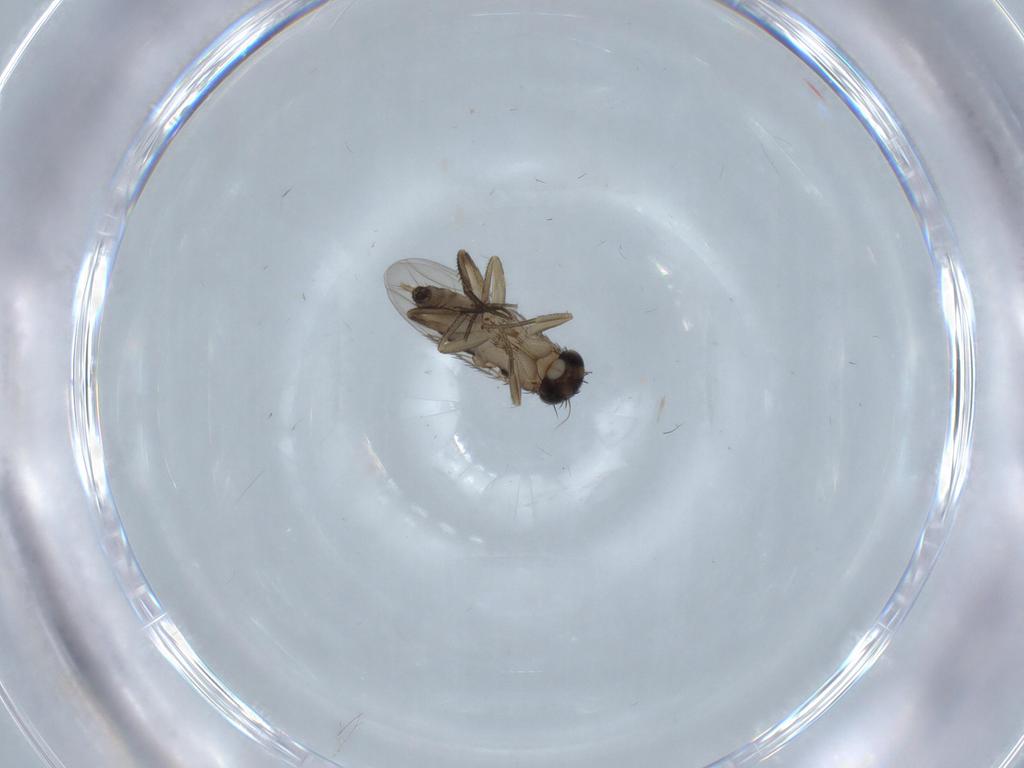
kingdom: Animalia
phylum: Arthropoda
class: Insecta
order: Diptera
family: Phoridae
